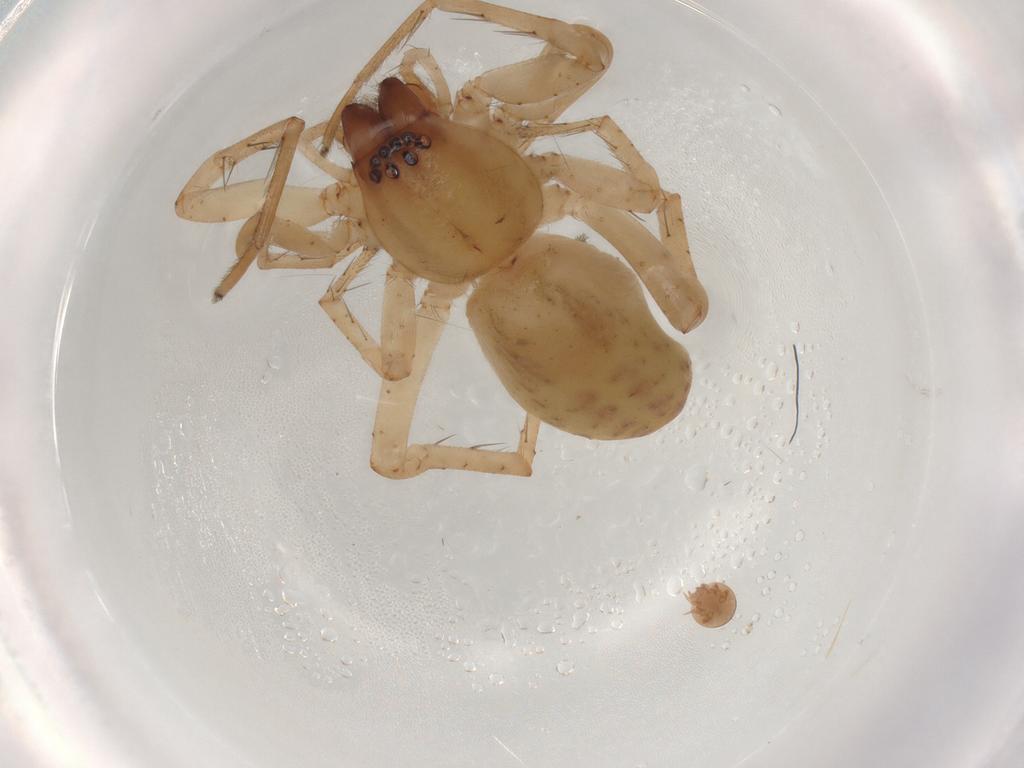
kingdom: Animalia
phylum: Arthropoda
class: Arachnida
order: Araneae
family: Anyphaenidae
